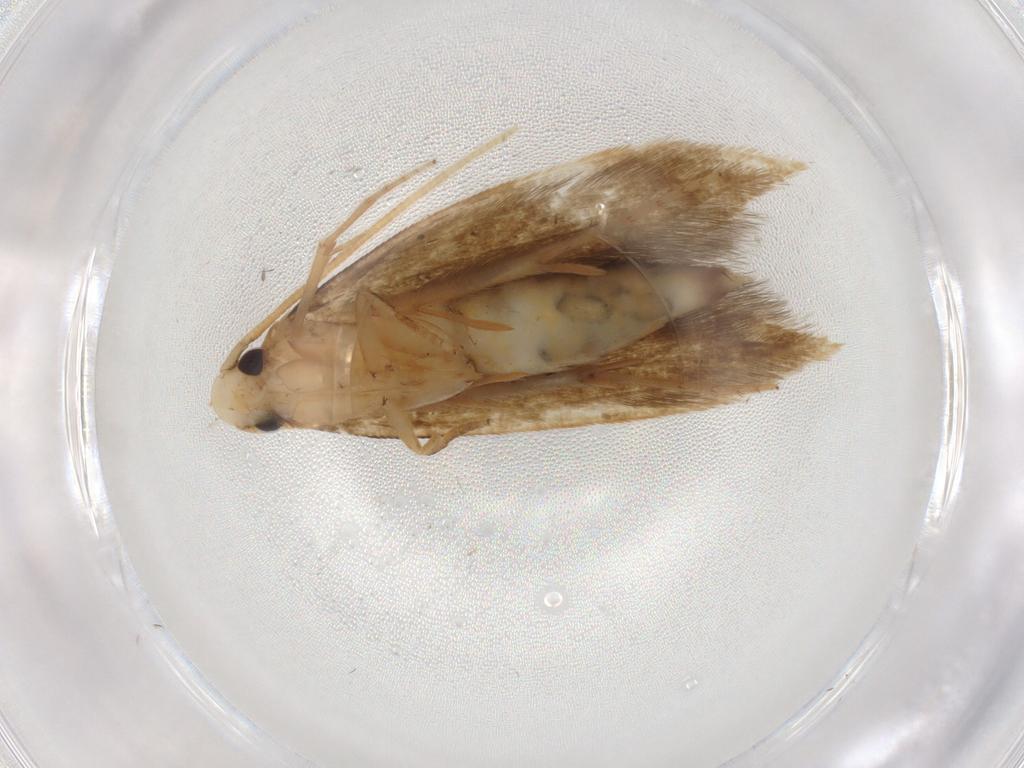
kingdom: Animalia
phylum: Arthropoda
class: Insecta
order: Lepidoptera
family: Tineidae
